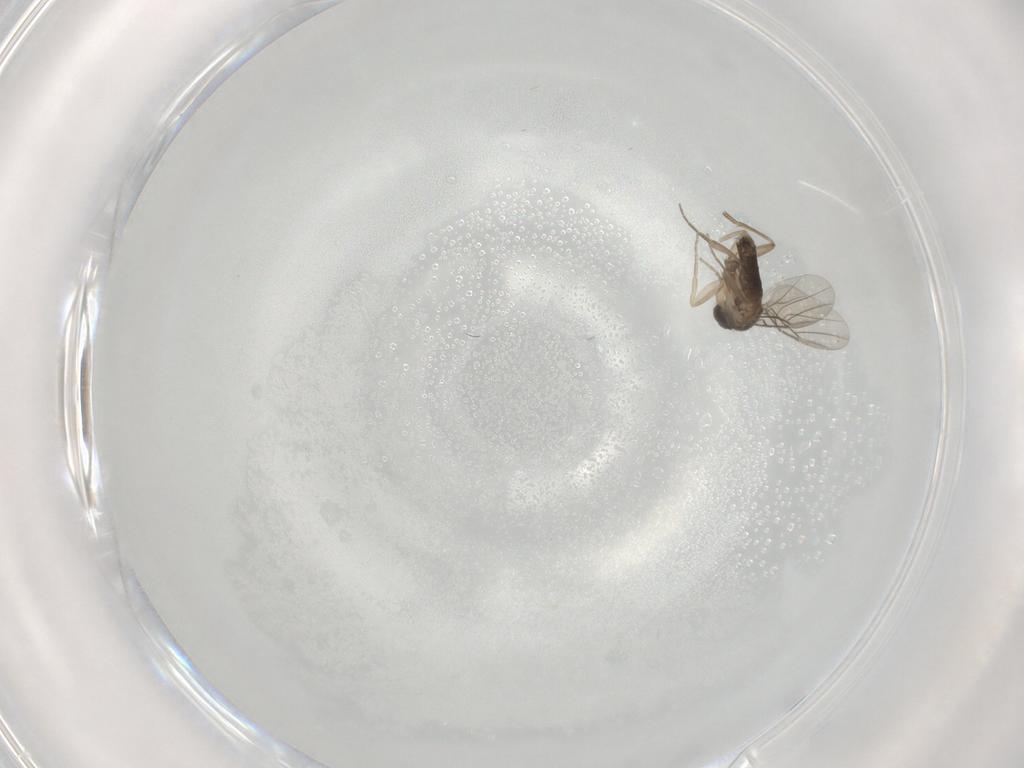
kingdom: Animalia
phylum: Arthropoda
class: Insecta
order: Diptera
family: Phoridae
